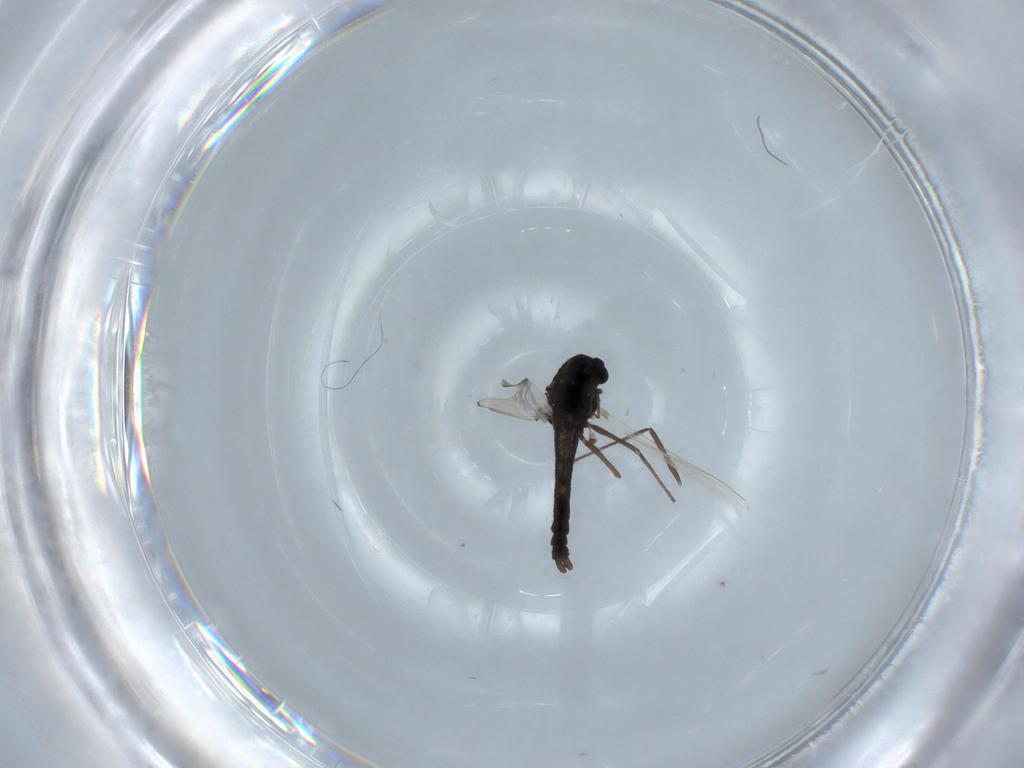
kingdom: Animalia
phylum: Arthropoda
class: Insecta
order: Diptera
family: Chironomidae
